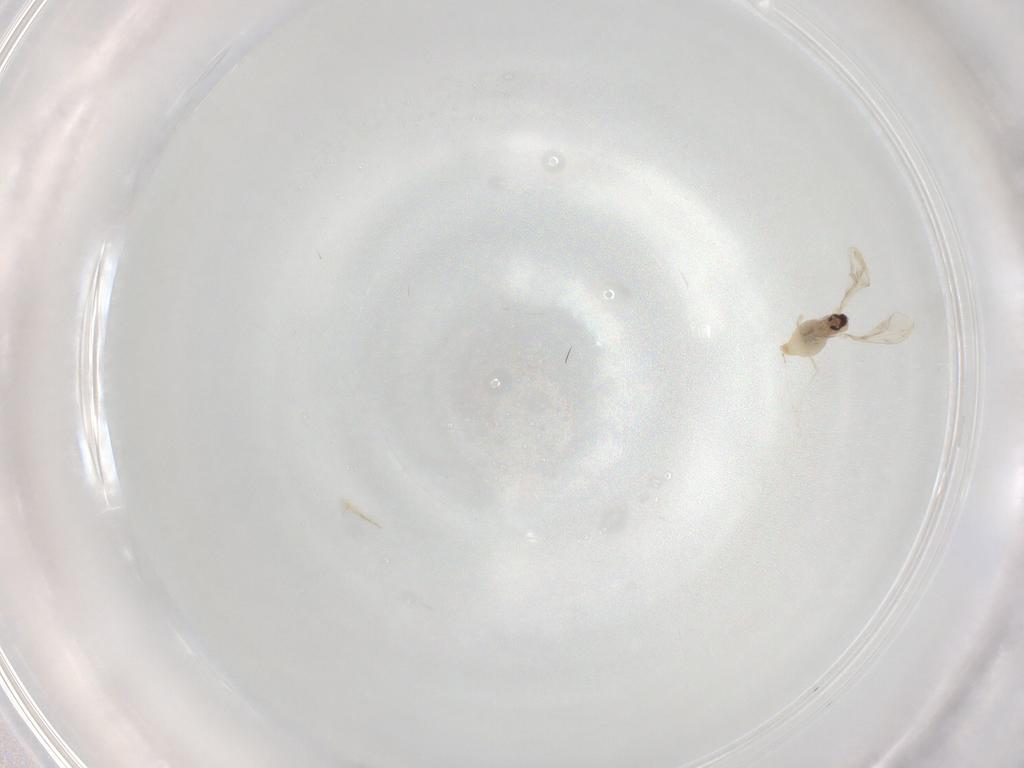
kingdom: Animalia
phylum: Arthropoda
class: Insecta
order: Diptera
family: Cecidomyiidae
